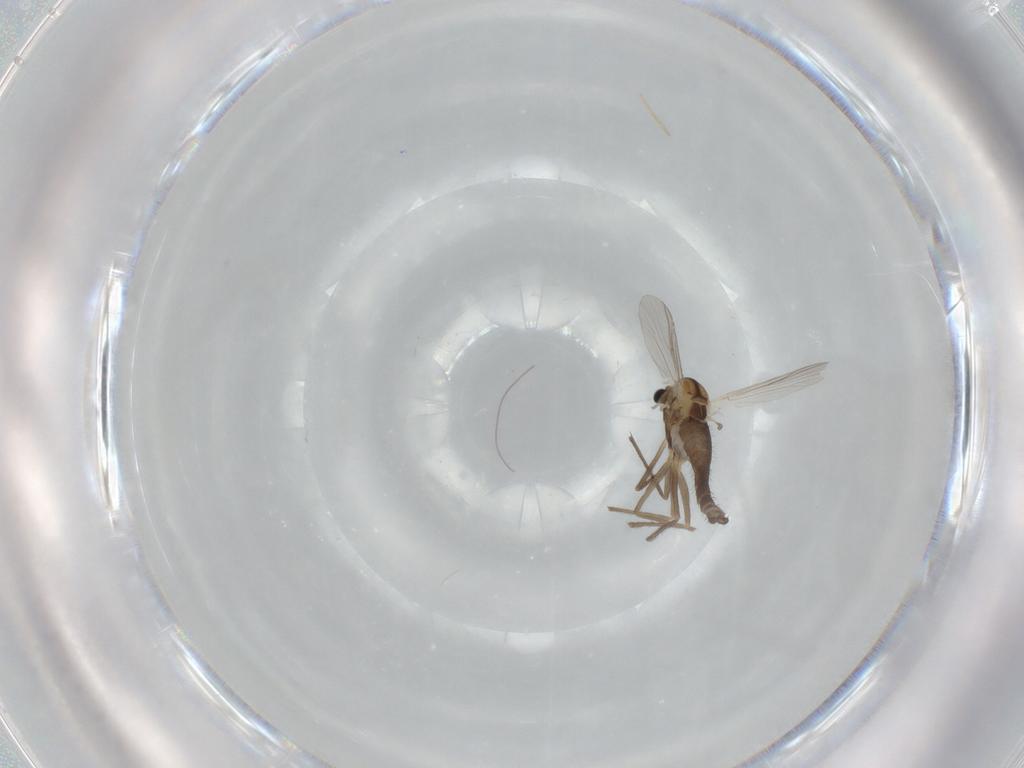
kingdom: Animalia
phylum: Arthropoda
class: Insecta
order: Diptera
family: Chironomidae
